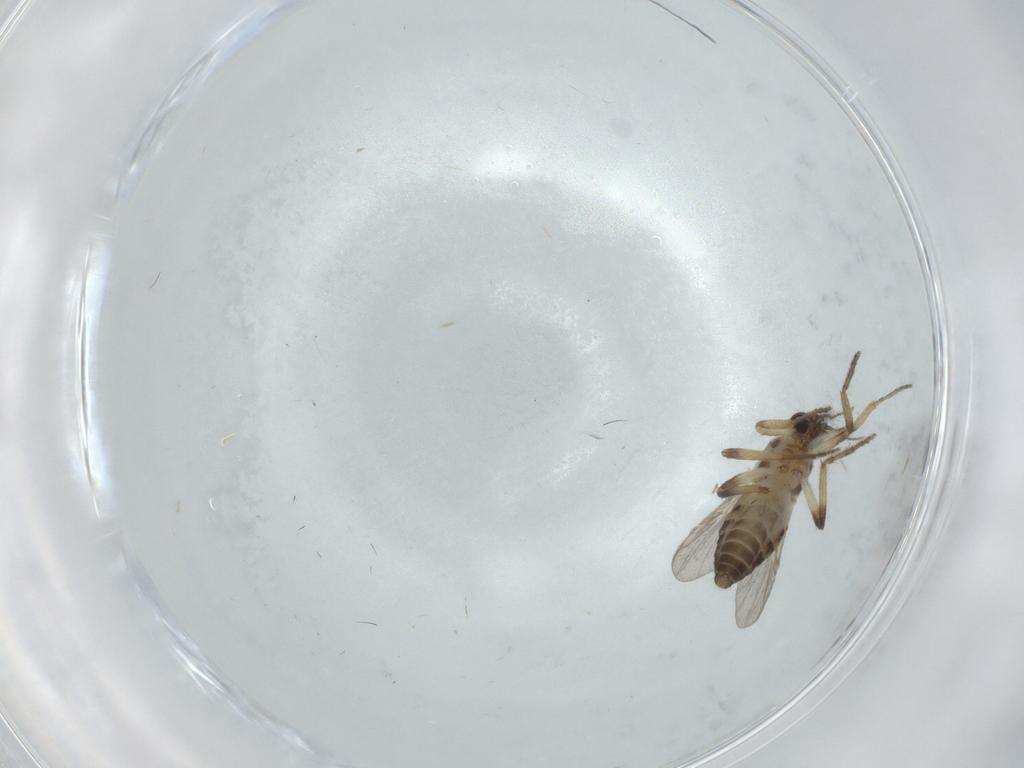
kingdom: Animalia
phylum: Arthropoda
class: Insecta
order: Diptera
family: Ceratopogonidae
